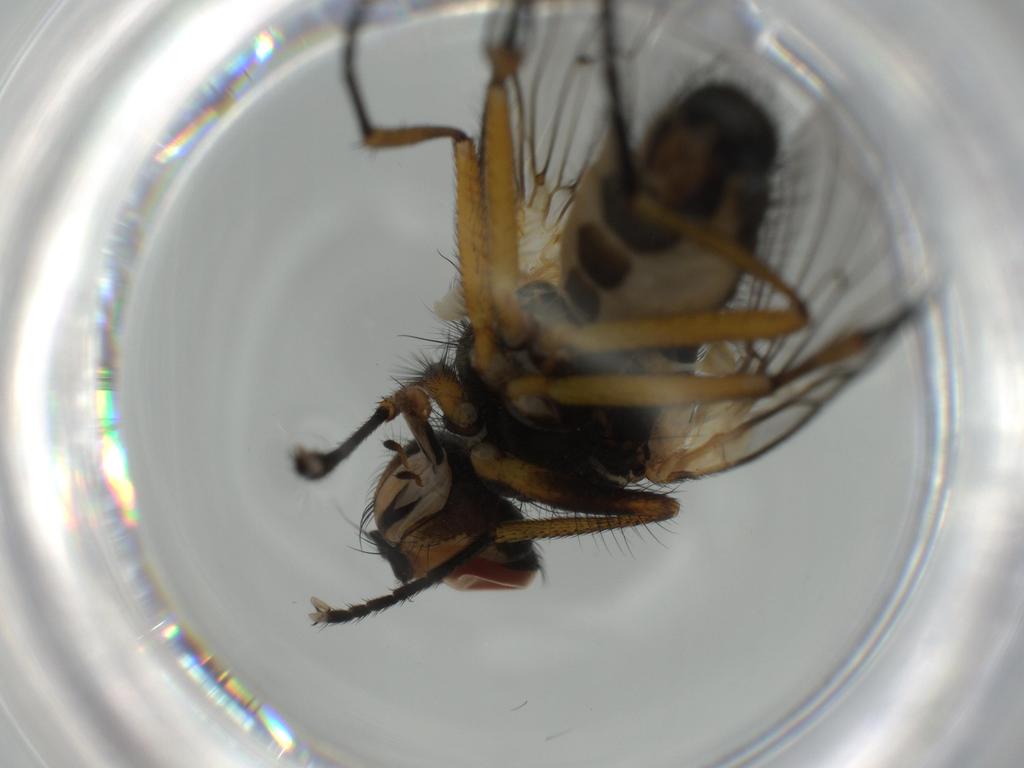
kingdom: Animalia
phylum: Arthropoda
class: Insecta
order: Diptera
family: Anthomyiidae
